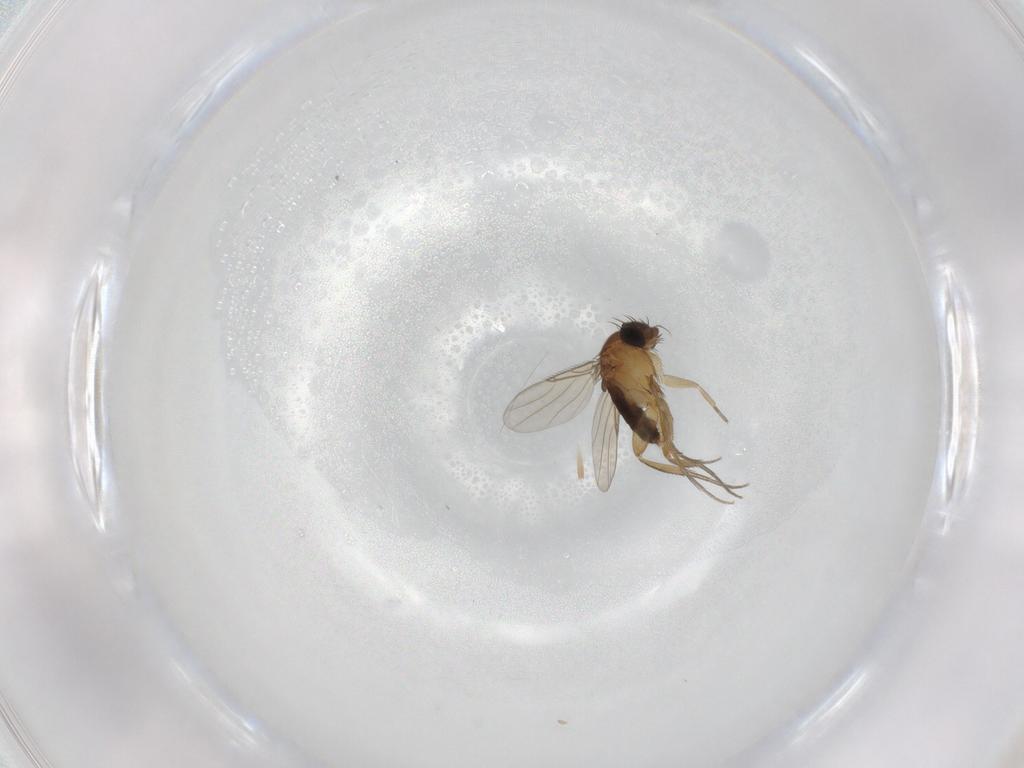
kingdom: Animalia
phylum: Arthropoda
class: Insecta
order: Diptera
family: Phoridae
